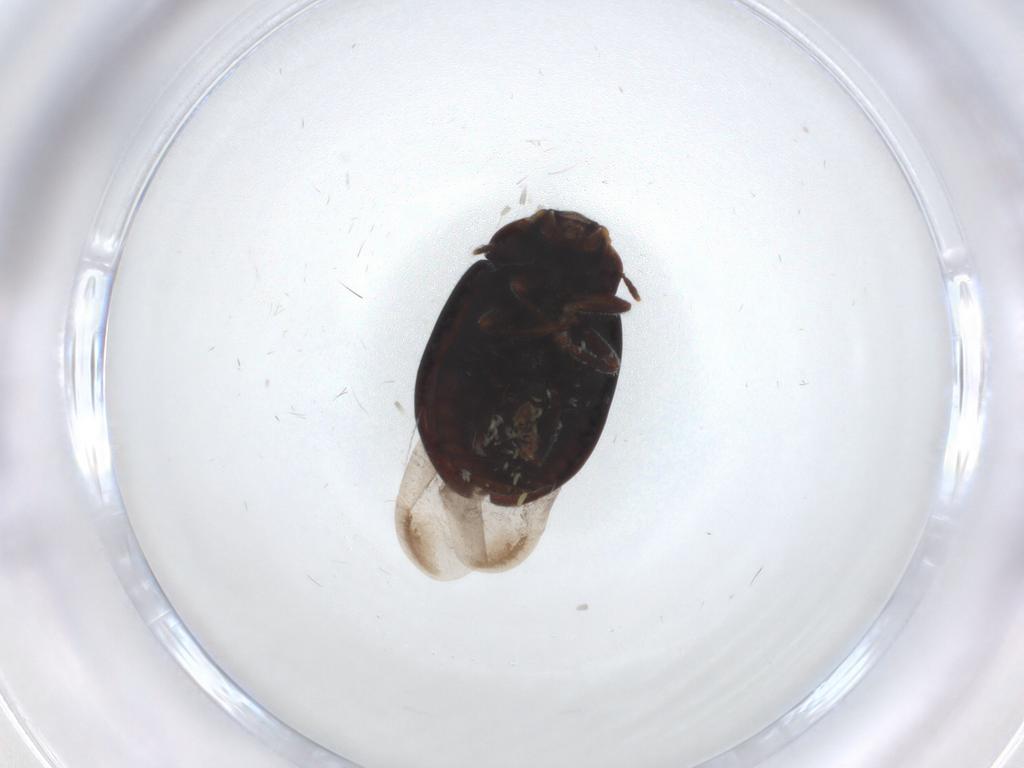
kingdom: Animalia
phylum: Arthropoda
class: Insecta
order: Coleoptera
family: Coccinellidae
